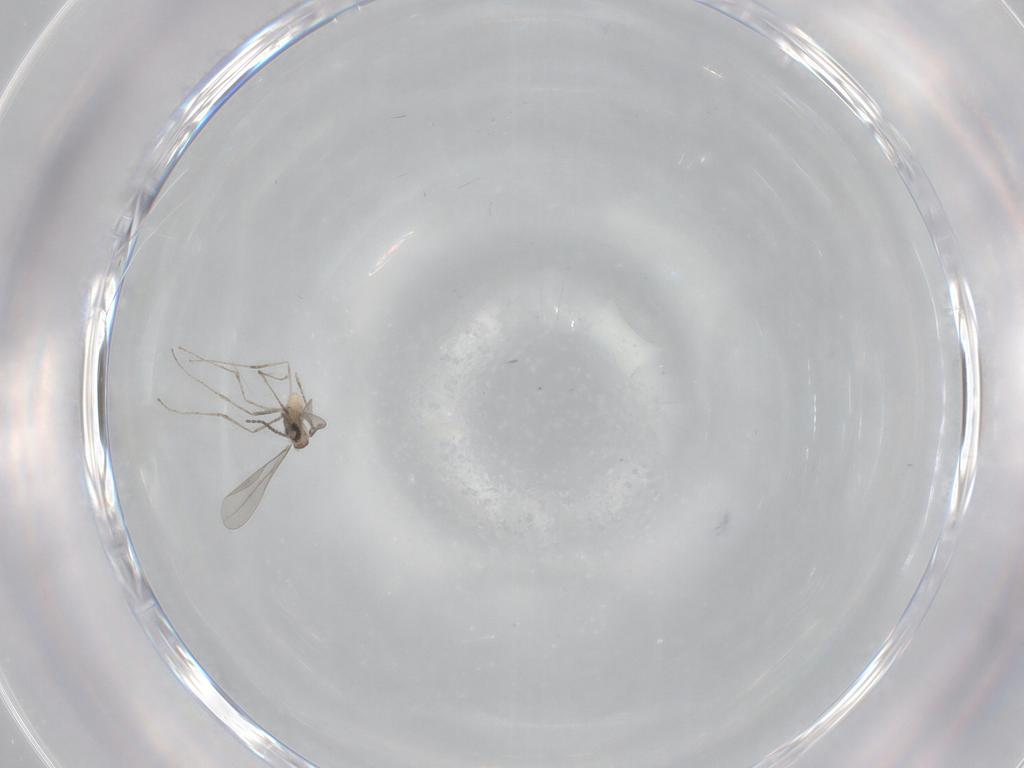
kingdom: Animalia
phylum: Arthropoda
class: Insecta
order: Diptera
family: Cecidomyiidae
